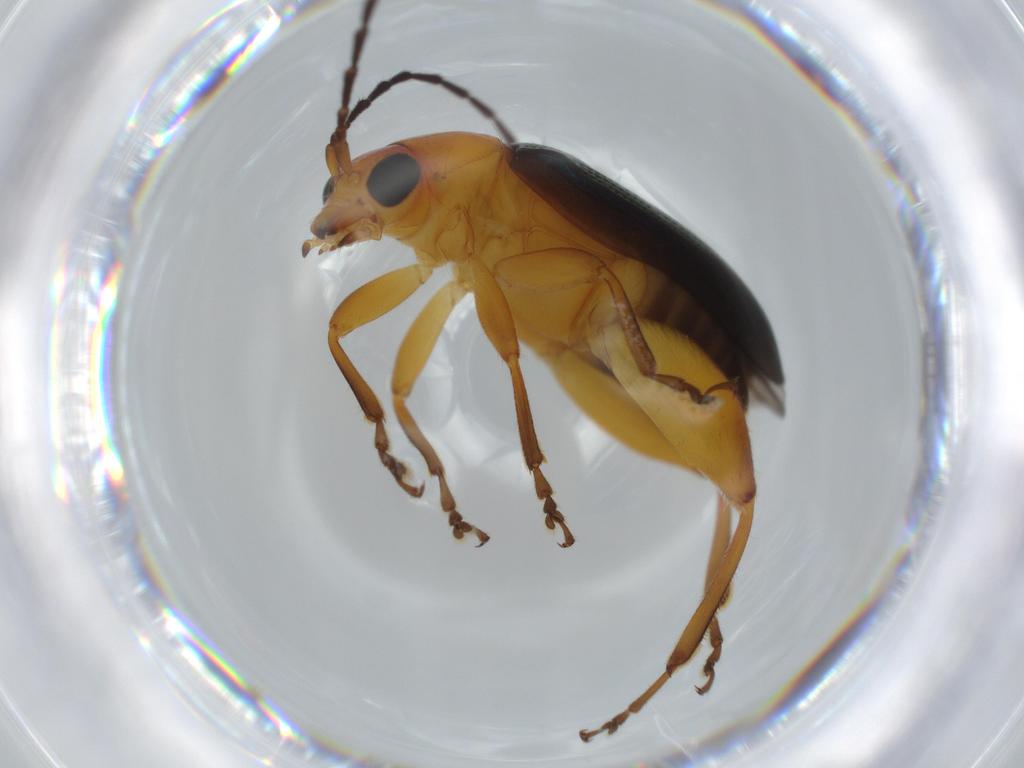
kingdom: Animalia
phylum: Arthropoda
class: Insecta
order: Coleoptera
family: Chrysomelidae
